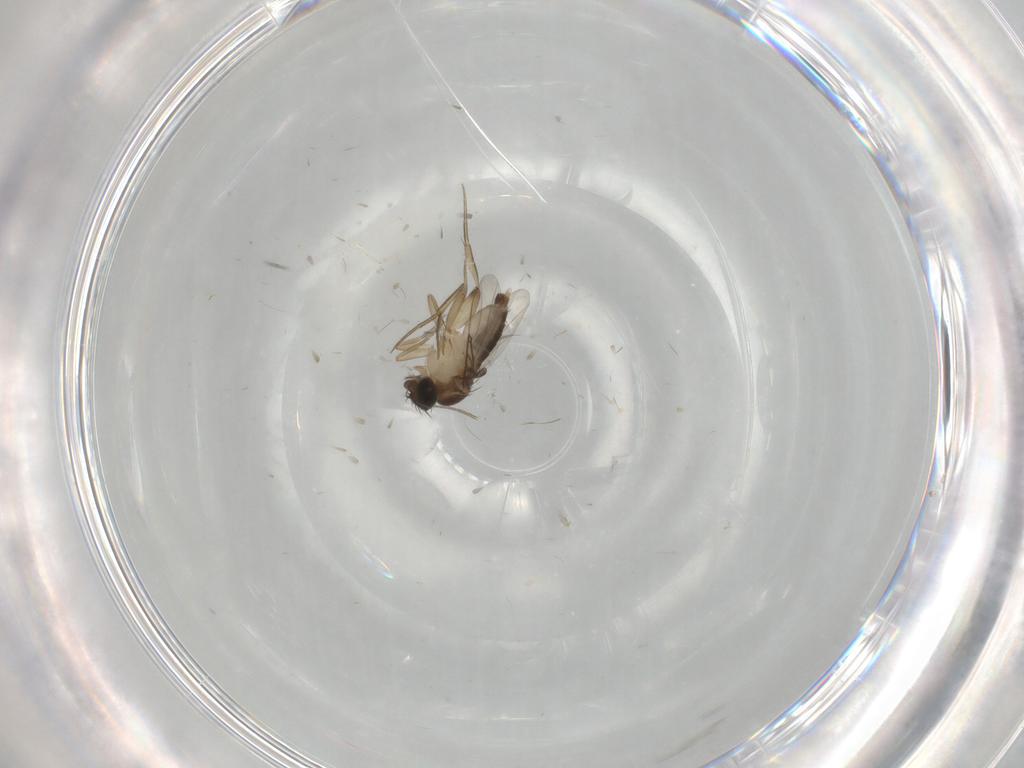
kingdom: Animalia
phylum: Arthropoda
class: Insecta
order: Diptera
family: Phoridae
